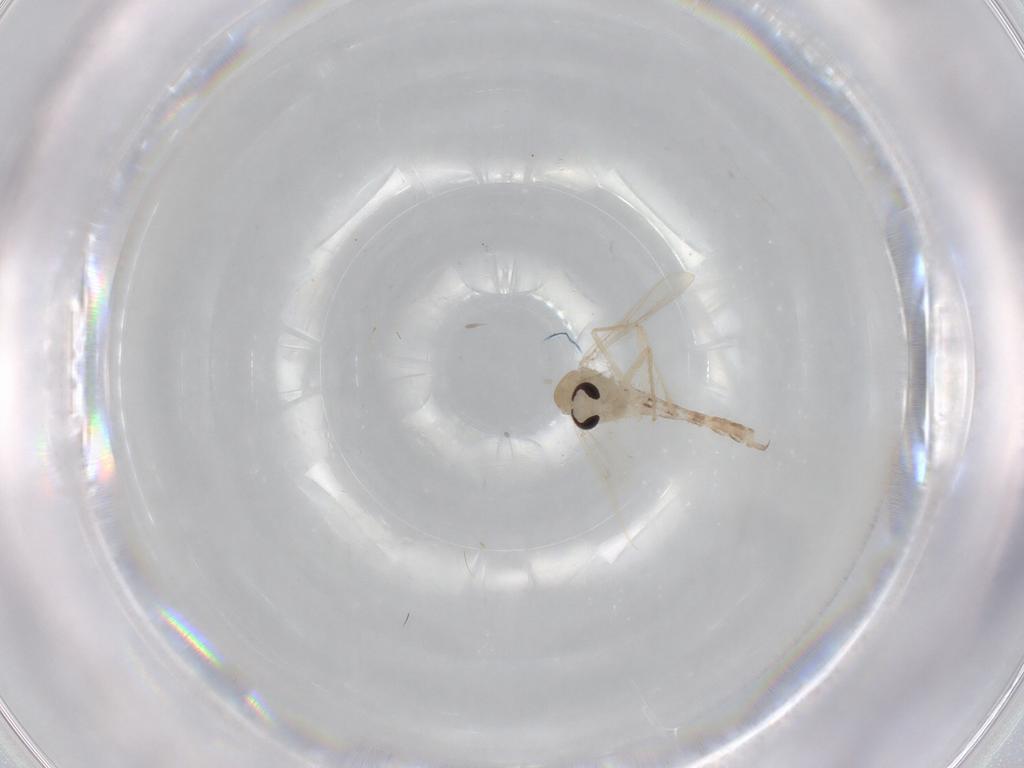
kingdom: Animalia
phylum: Arthropoda
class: Insecta
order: Diptera
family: Chironomidae
